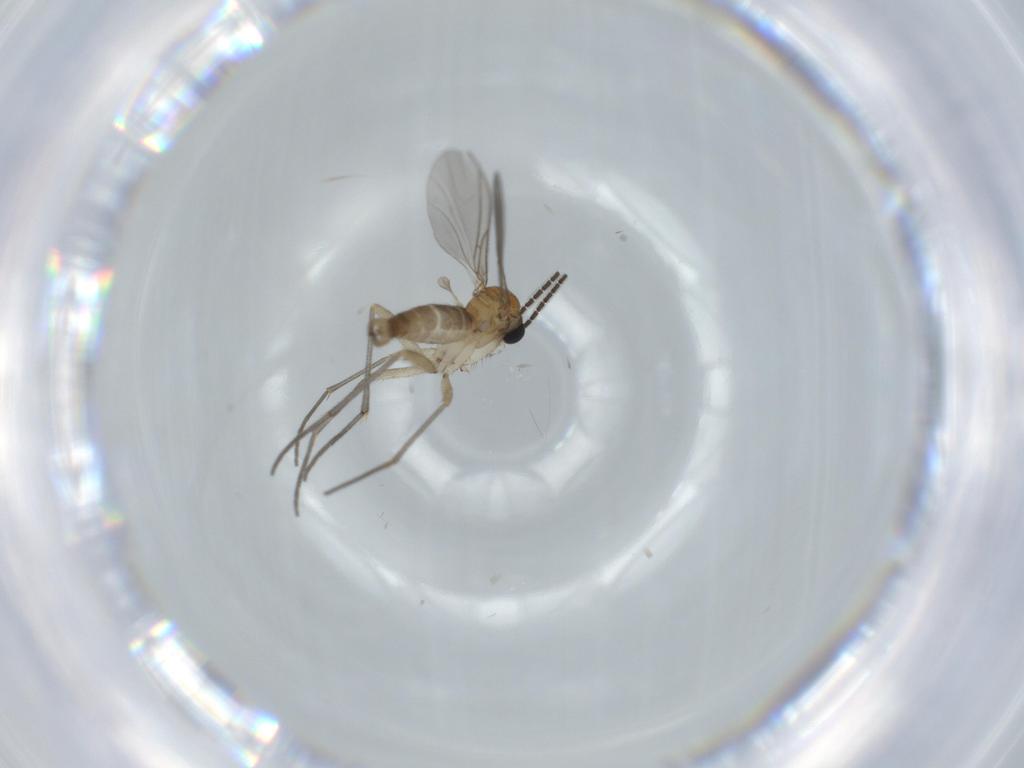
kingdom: Animalia
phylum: Arthropoda
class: Insecta
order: Diptera
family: Sciaridae
